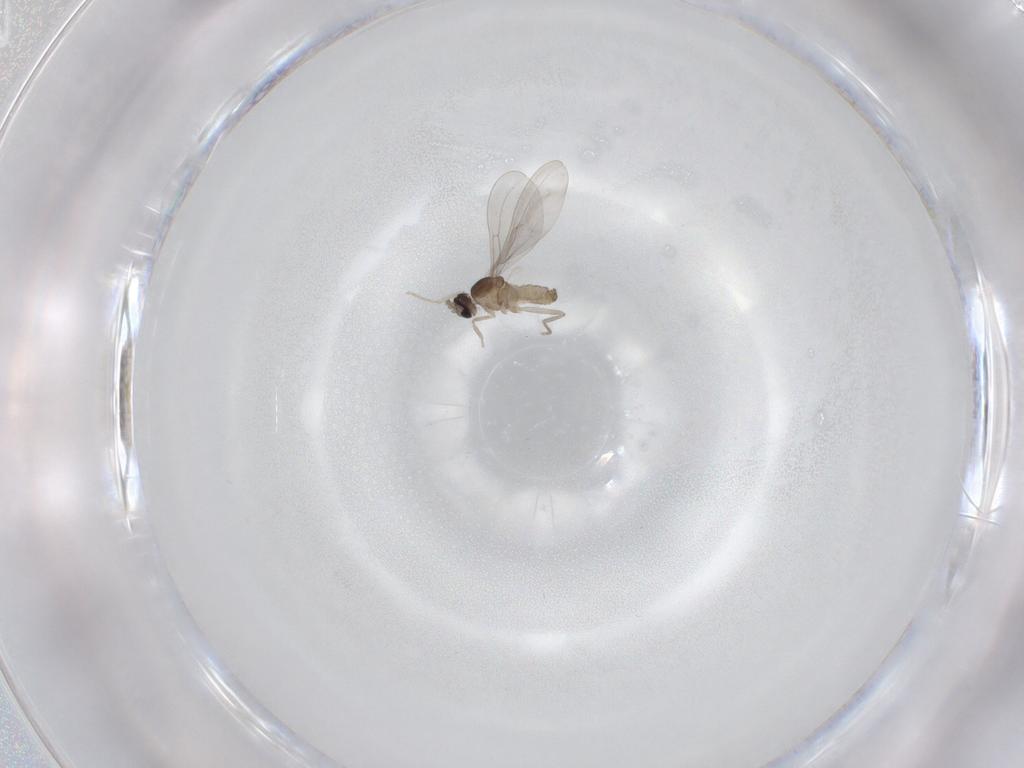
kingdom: Animalia
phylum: Arthropoda
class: Insecta
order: Diptera
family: Cecidomyiidae
